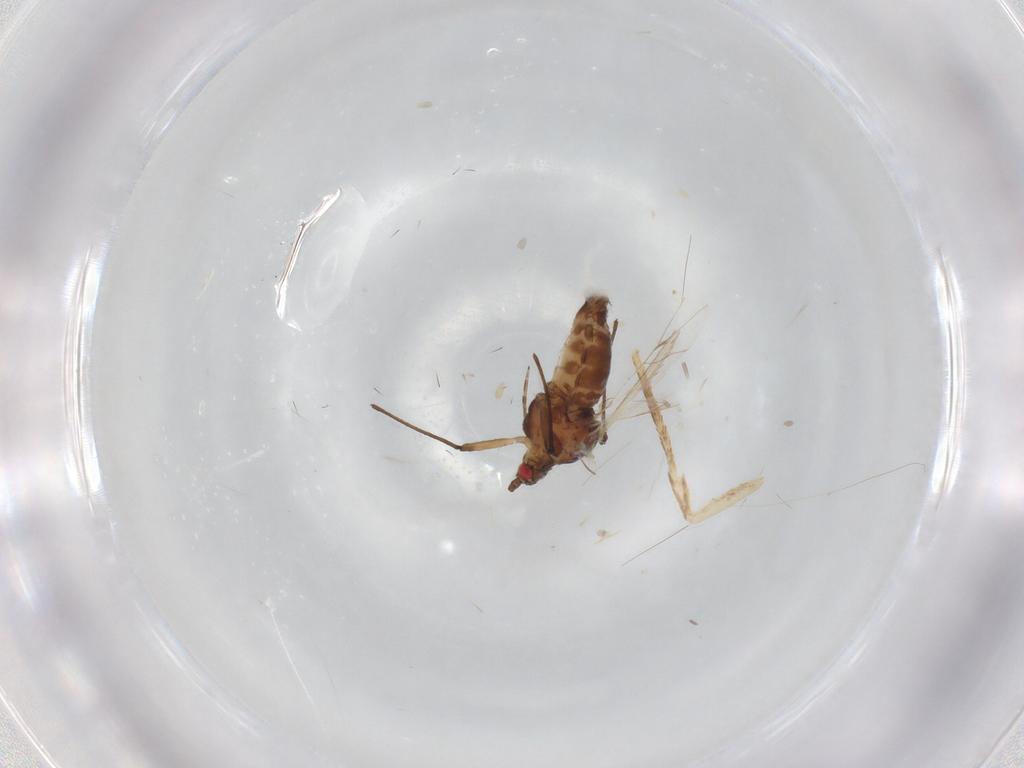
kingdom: Animalia
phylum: Arthropoda
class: Insecta
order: Hemiptera
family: Aphididae
